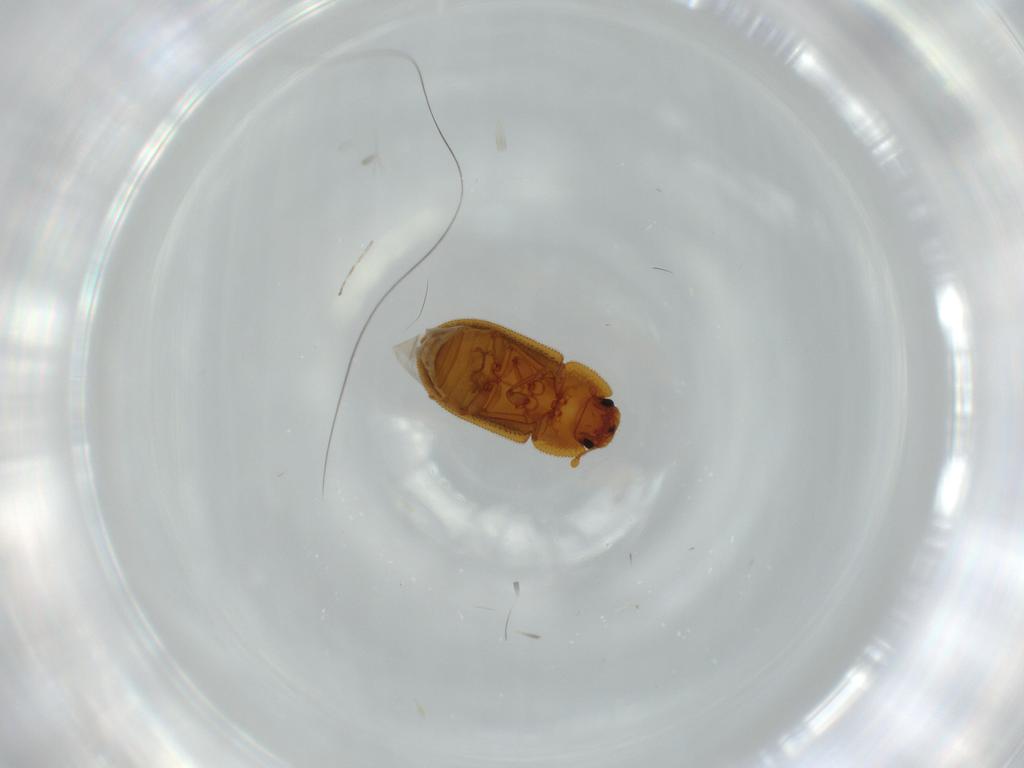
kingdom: Animalia
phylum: Arthropoda
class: Insecta
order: Coleoptera
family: Zopheridae
